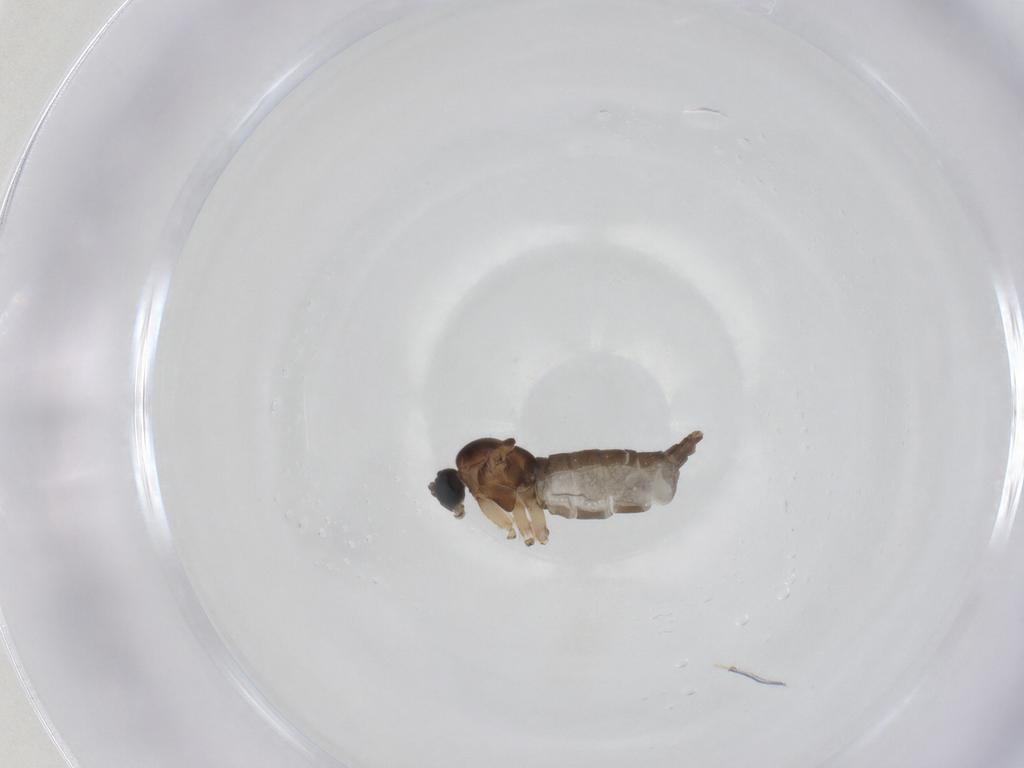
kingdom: Animalia
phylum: Arthropoda
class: Insecta
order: Diptera
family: Sciaridae
